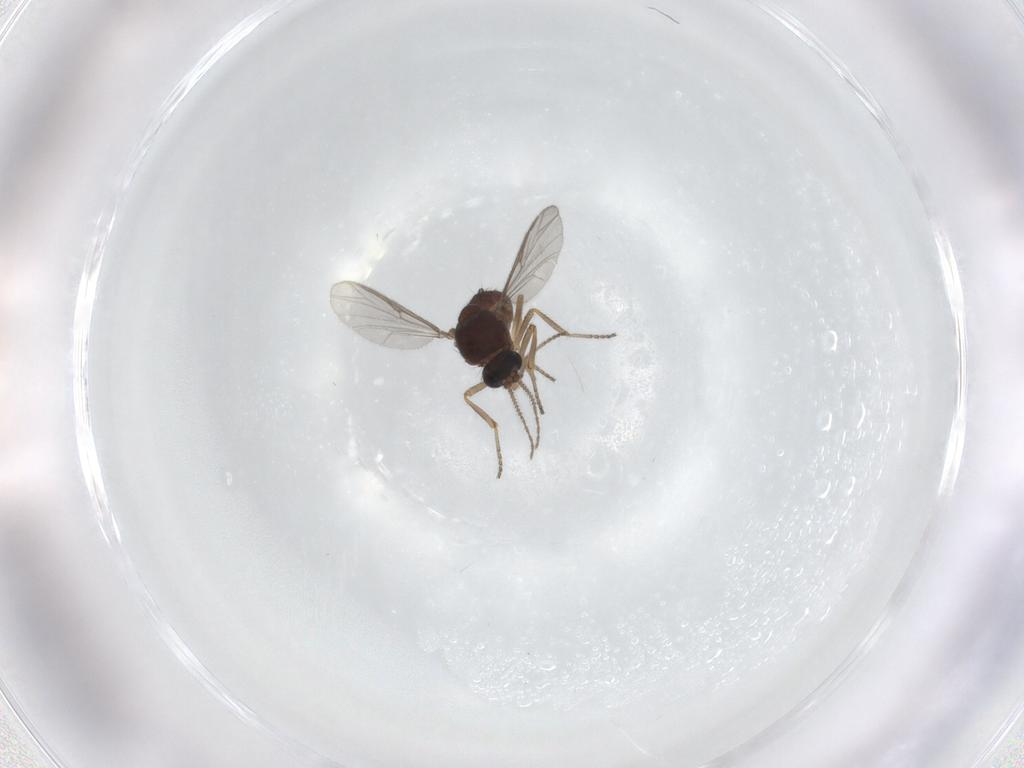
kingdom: Animalia
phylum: Arthropoda
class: Insecta
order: Diptera
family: Ceratopogonidae
